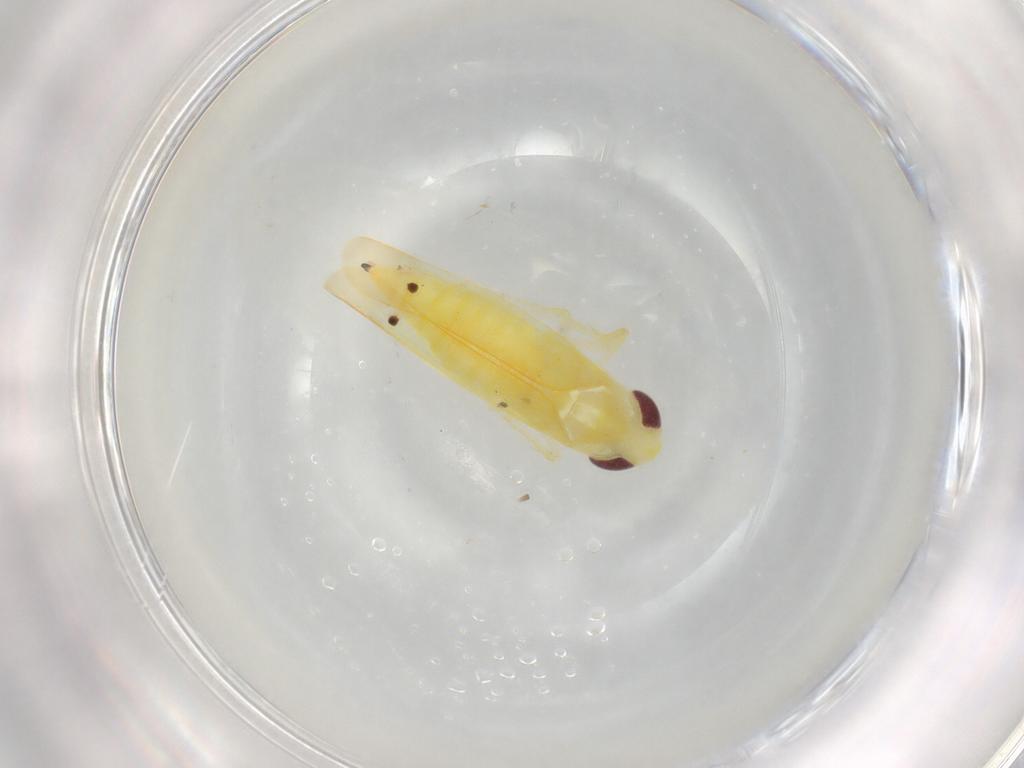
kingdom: Animalia
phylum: Arthropoda
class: Insecta
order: Hemiptera
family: Cicadellidae
